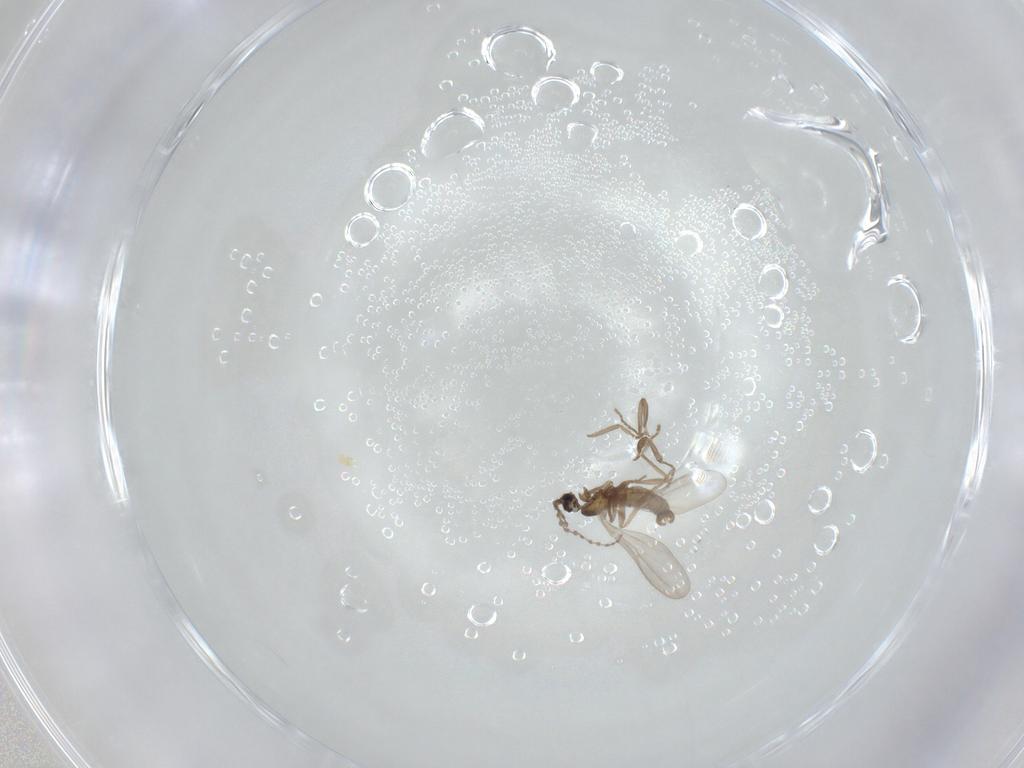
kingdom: Animalia
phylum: Arthropoda
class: Insecta
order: Diptera
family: Cecidomyiidae
